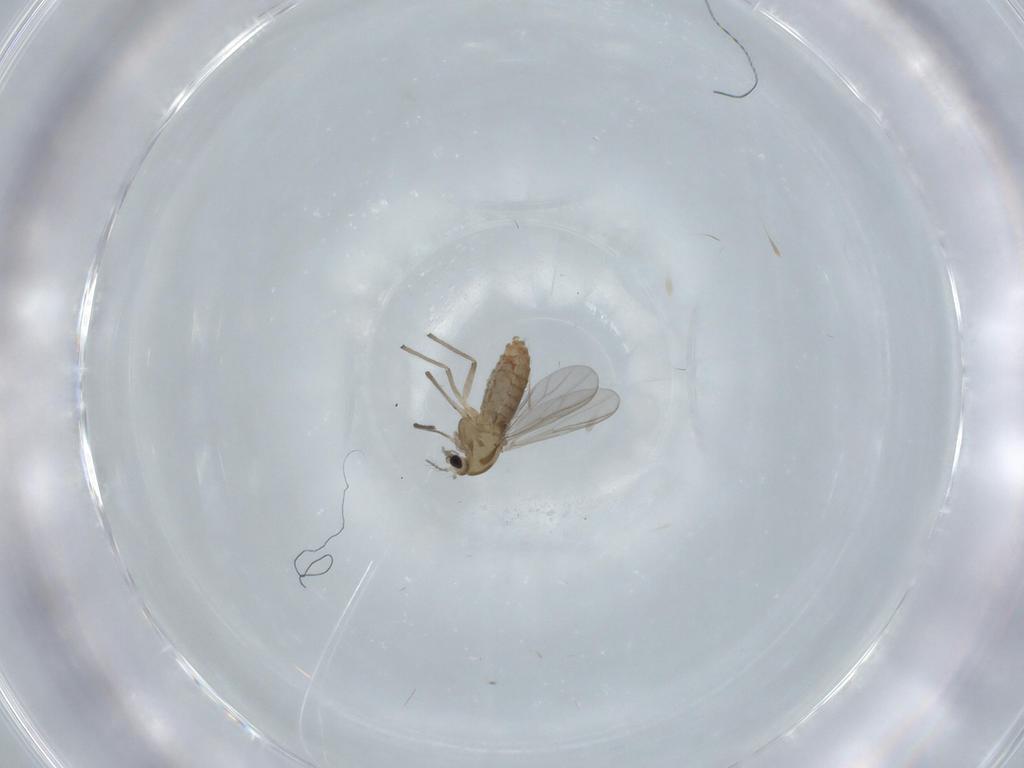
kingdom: Animalia
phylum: Arthropoda
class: Insecta
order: Diptera
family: Chironomidae
